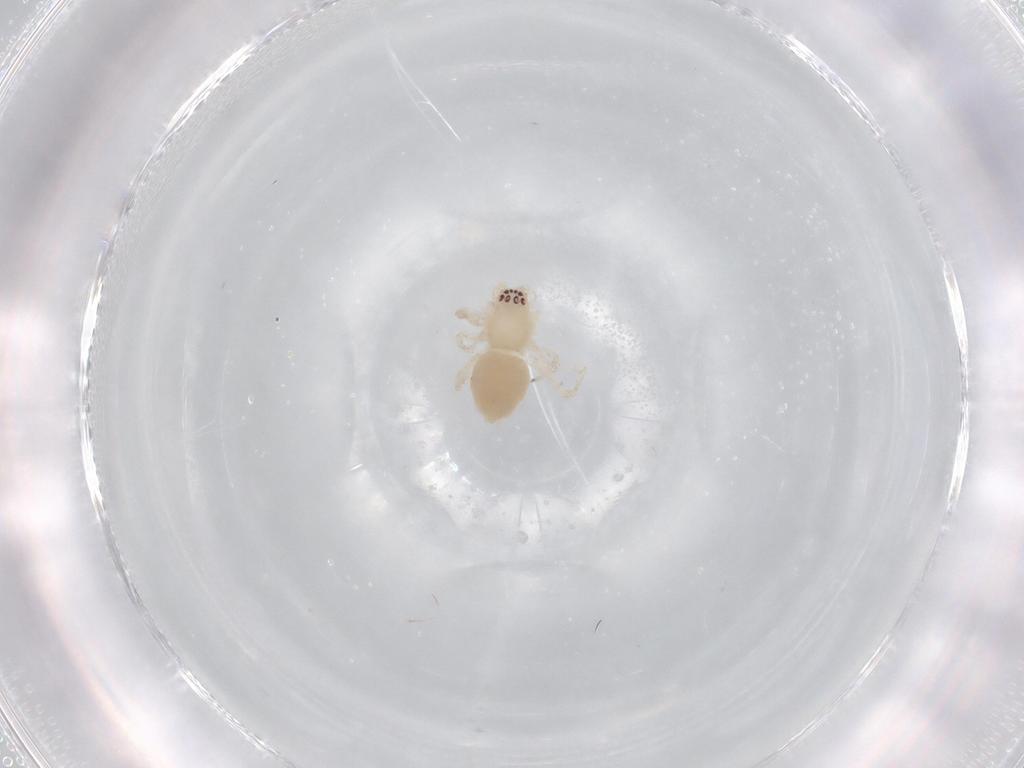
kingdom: Animalia
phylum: Arthropoda
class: Arachnida
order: Araneae
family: Anyphaenidae
